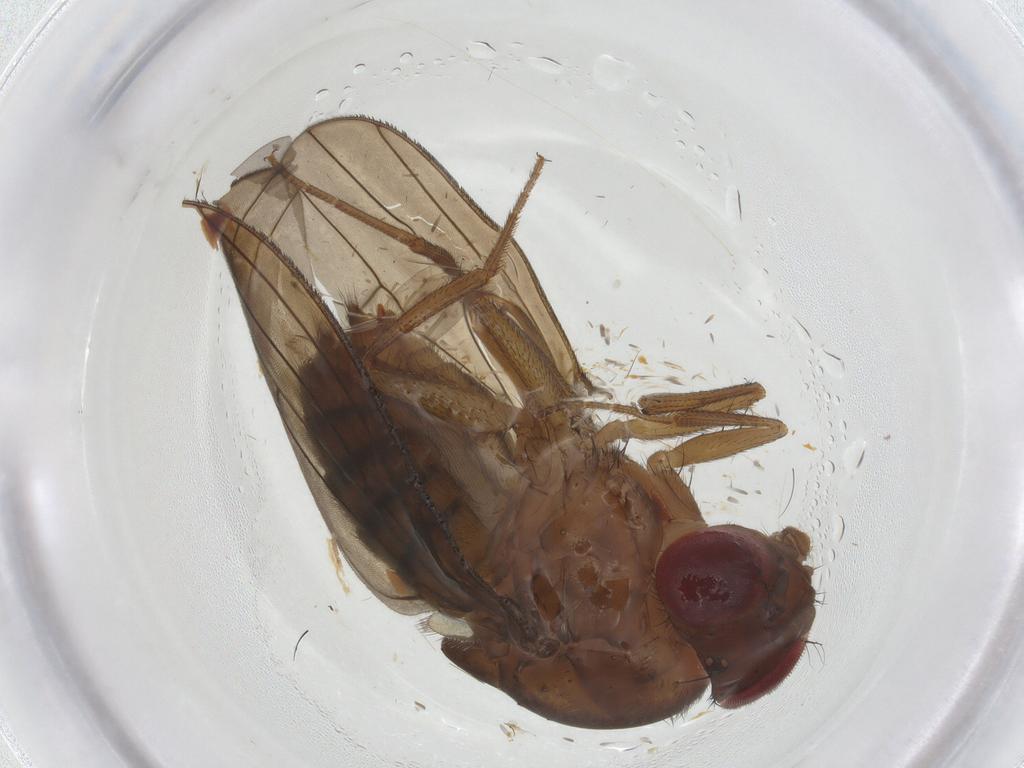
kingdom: Animalia
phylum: Arthropoda
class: Insecta
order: Diptera
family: Drosophilidae
